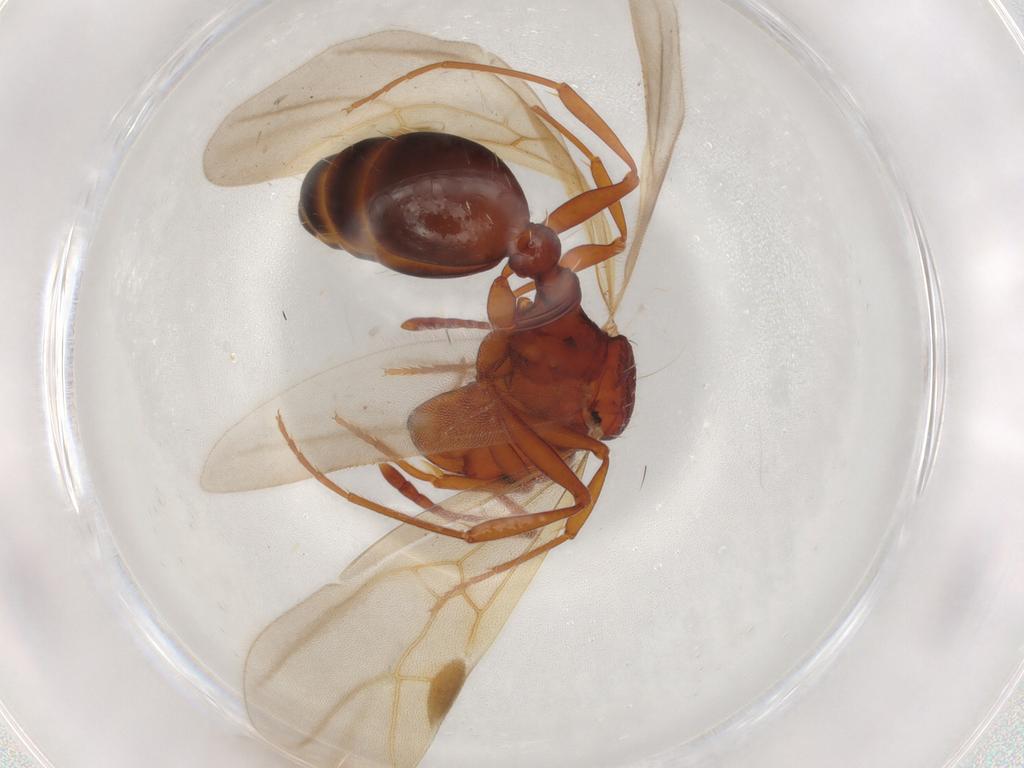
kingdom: Animalia
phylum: Arthropoda
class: Insecta
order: Hymenoptera
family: Formicidae
